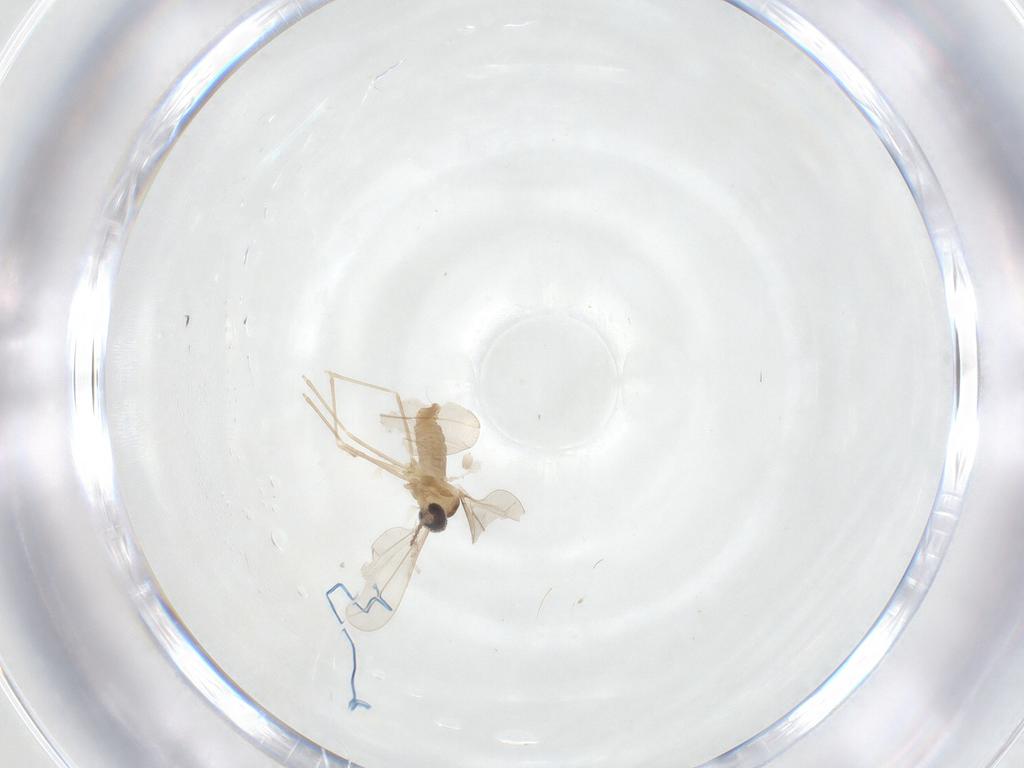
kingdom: Animalia
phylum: Arthropoda
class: Insecta
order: Diptera
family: Cecidomyiidae
